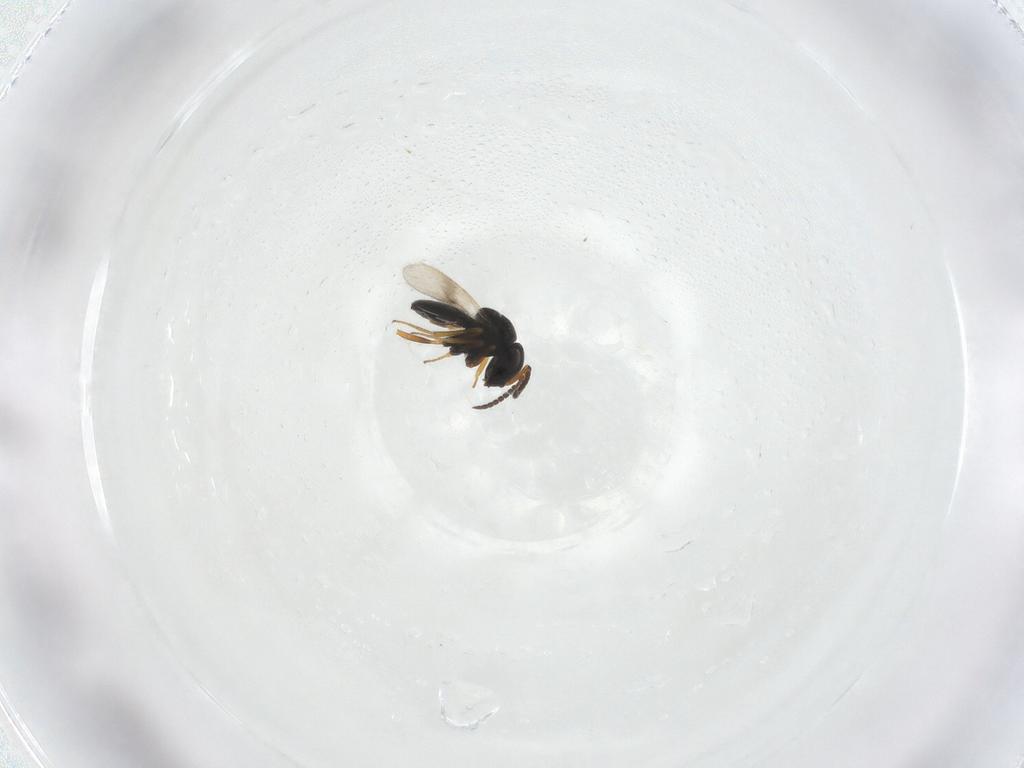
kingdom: Animalia
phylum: Arthropoda
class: Insecta
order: Hymenoptera
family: Scelionidae
